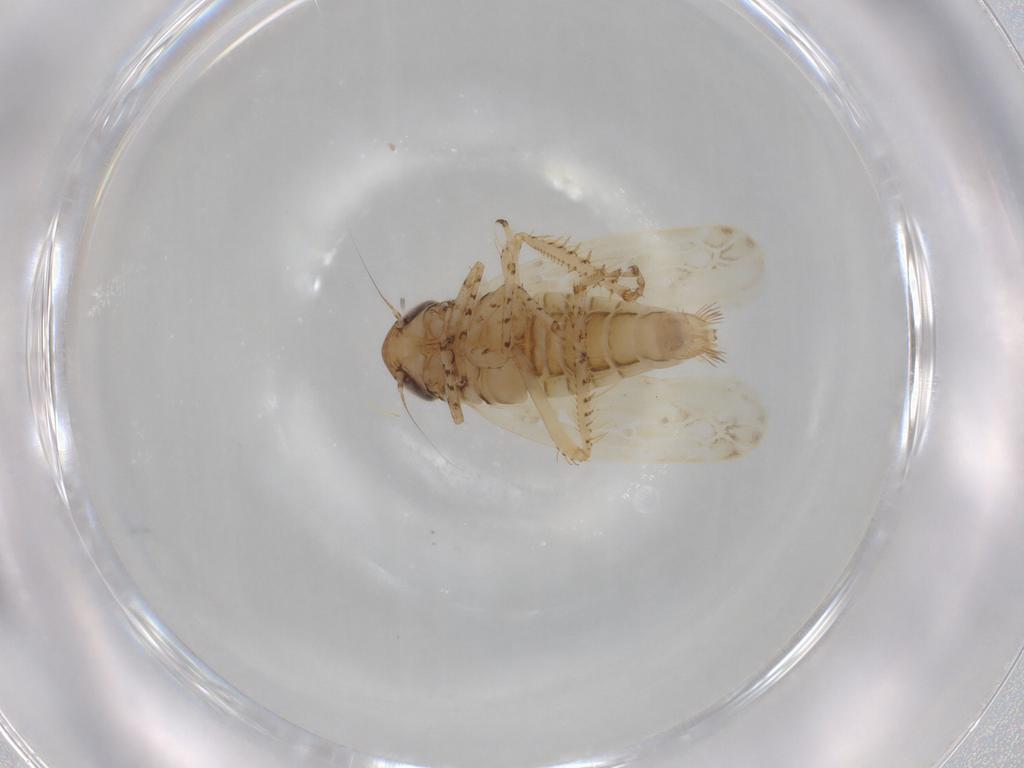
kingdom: Animalia
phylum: Arthropoda
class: Insecta
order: Hemiptera
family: Cicadellidae
